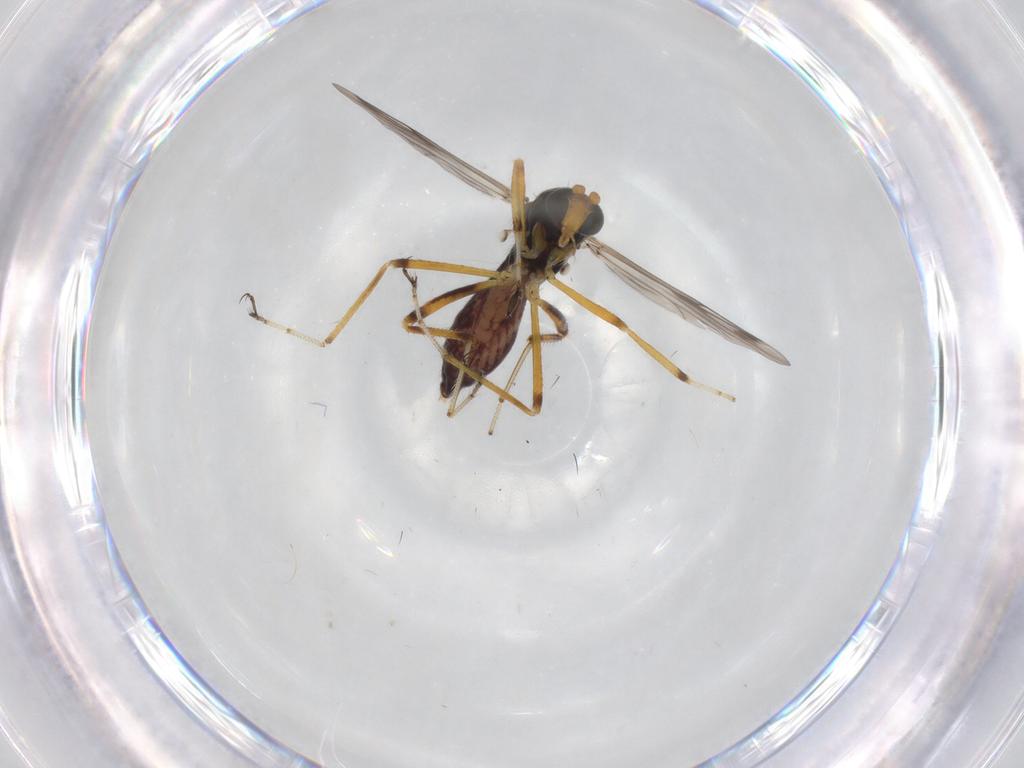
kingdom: Animalia
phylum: Arthropoda
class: Insecta
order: Diptera
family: Ceratopogonidae
